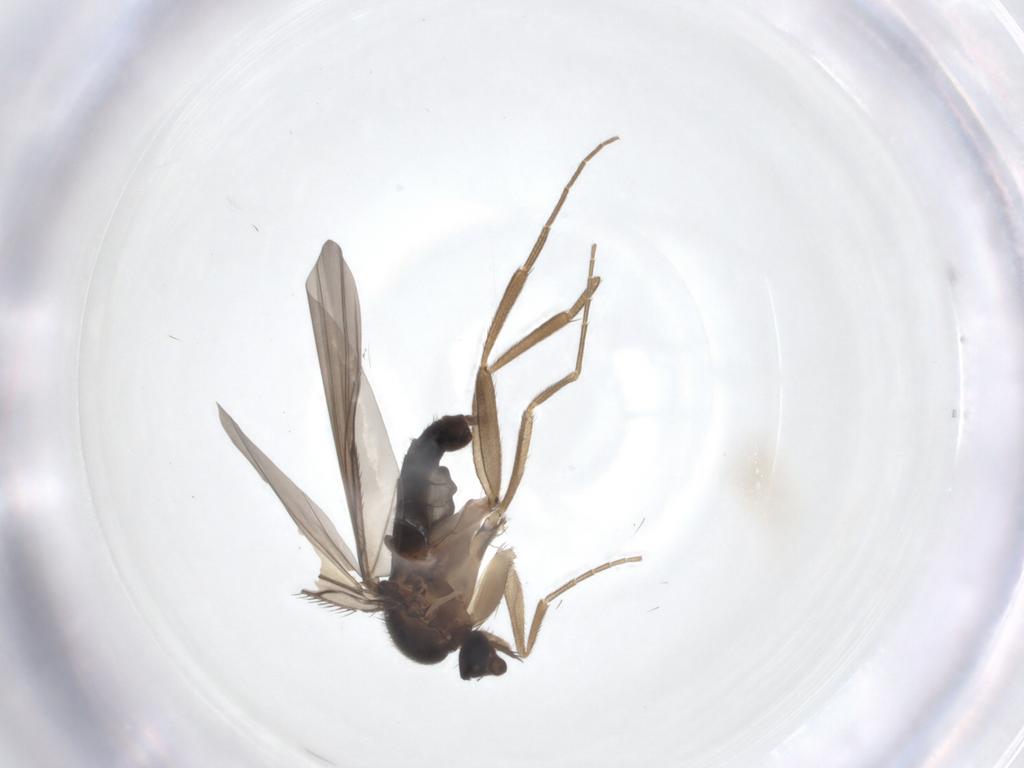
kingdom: Animalia
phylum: Arthropoda
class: Insecta
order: Diptera
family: Phoridae
